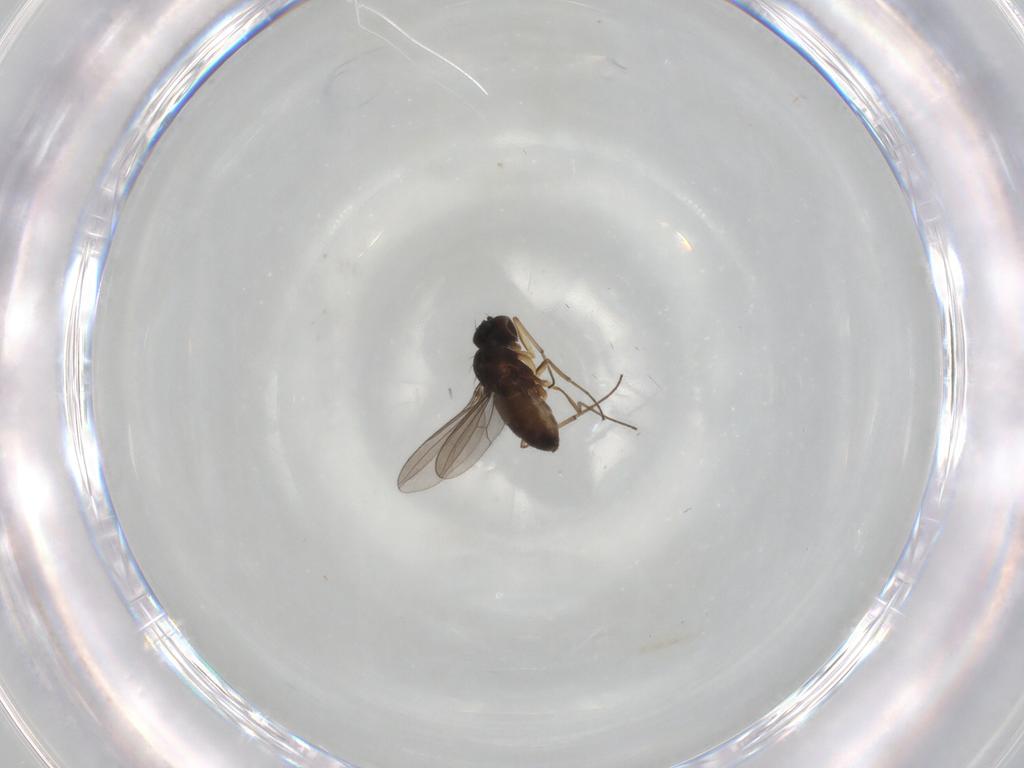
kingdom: Animalia
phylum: Arthropoda
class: Insecta
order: Diptera
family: Dolichopodidae
